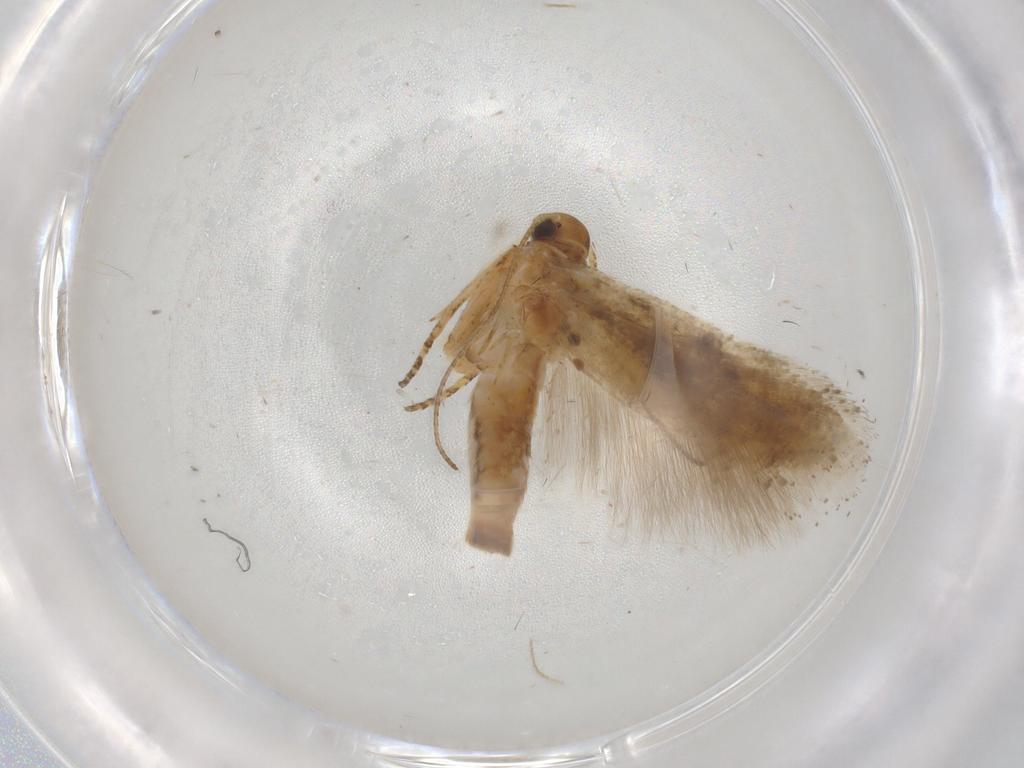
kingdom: Animalia
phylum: Arthropoda
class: Insecta
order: Lepidoptera
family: Gelechiidae
